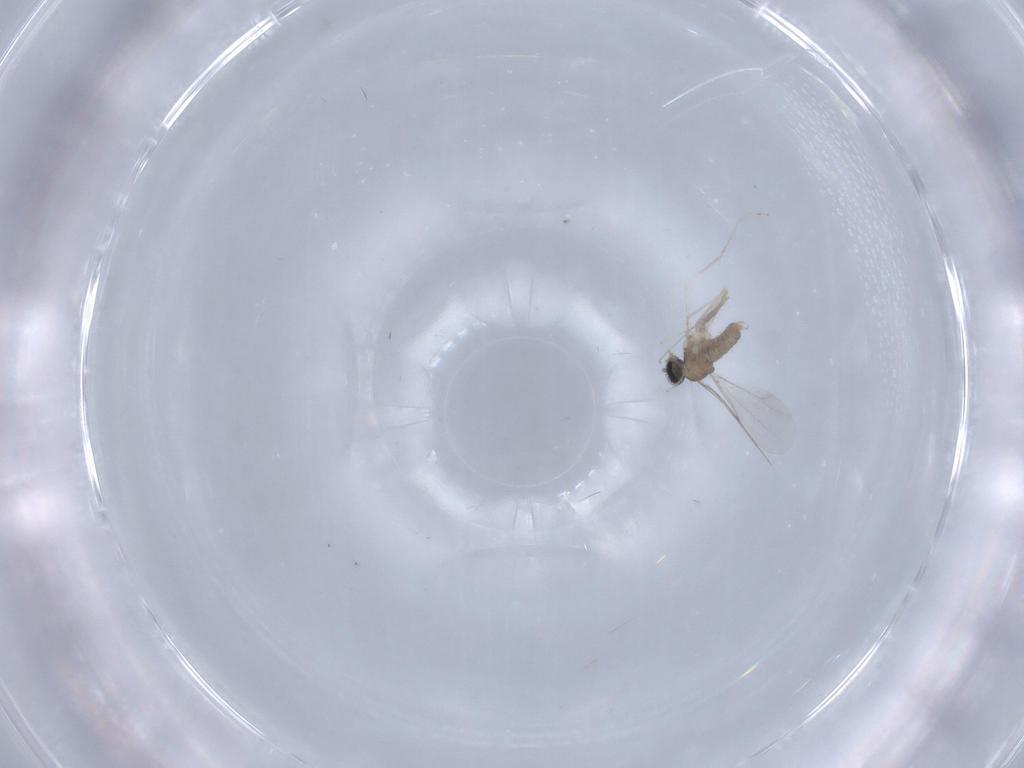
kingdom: Animalia
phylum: Arthropoda
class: Insecta
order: Diptera
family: Cecidomyiidae
